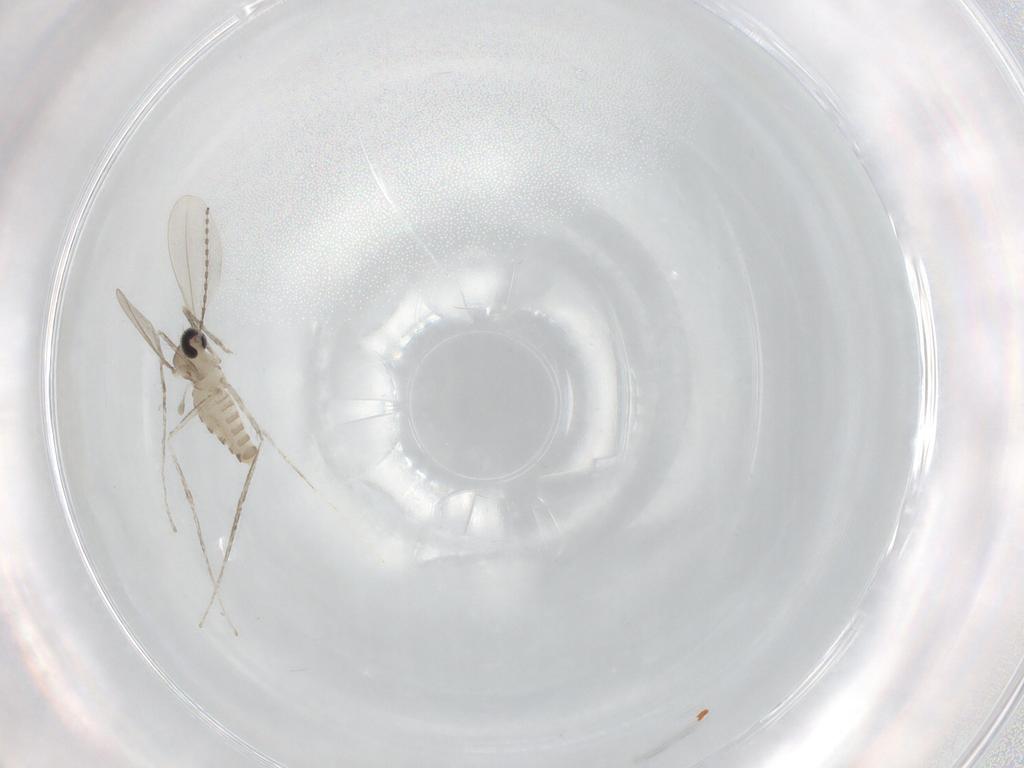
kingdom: Animalia
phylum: Arthropoda
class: Insecta
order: Diptera
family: Cecidomyiidae
